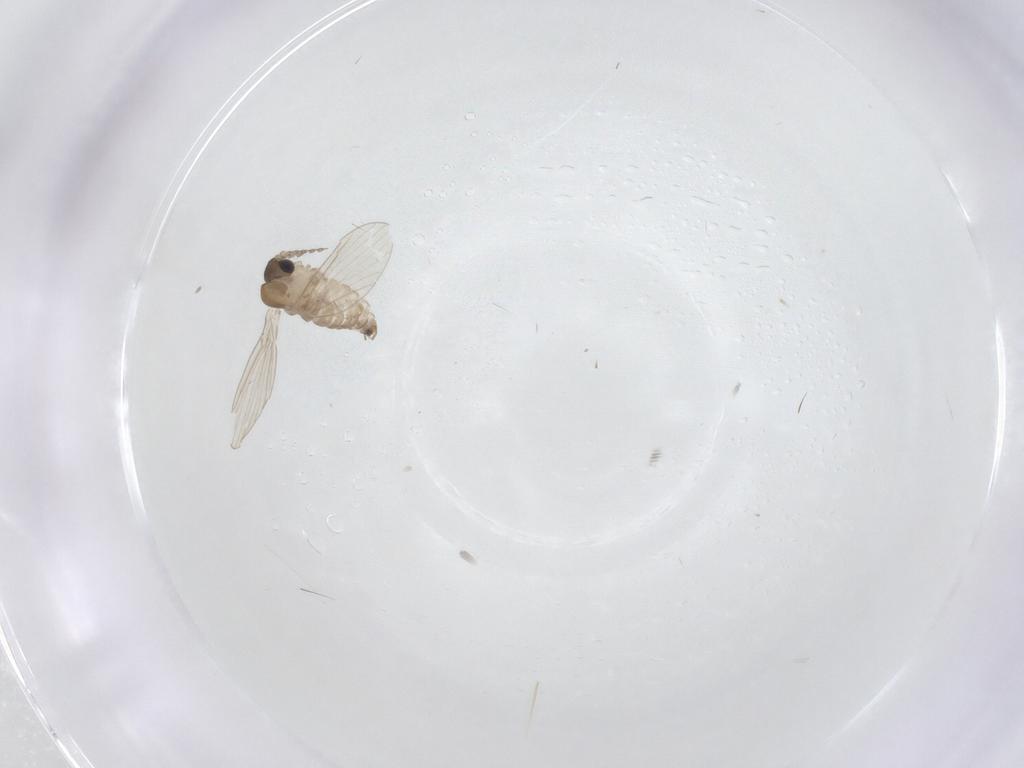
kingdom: Animalia
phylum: Arthropoda
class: Insecta
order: Diptera
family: Psychodidae
